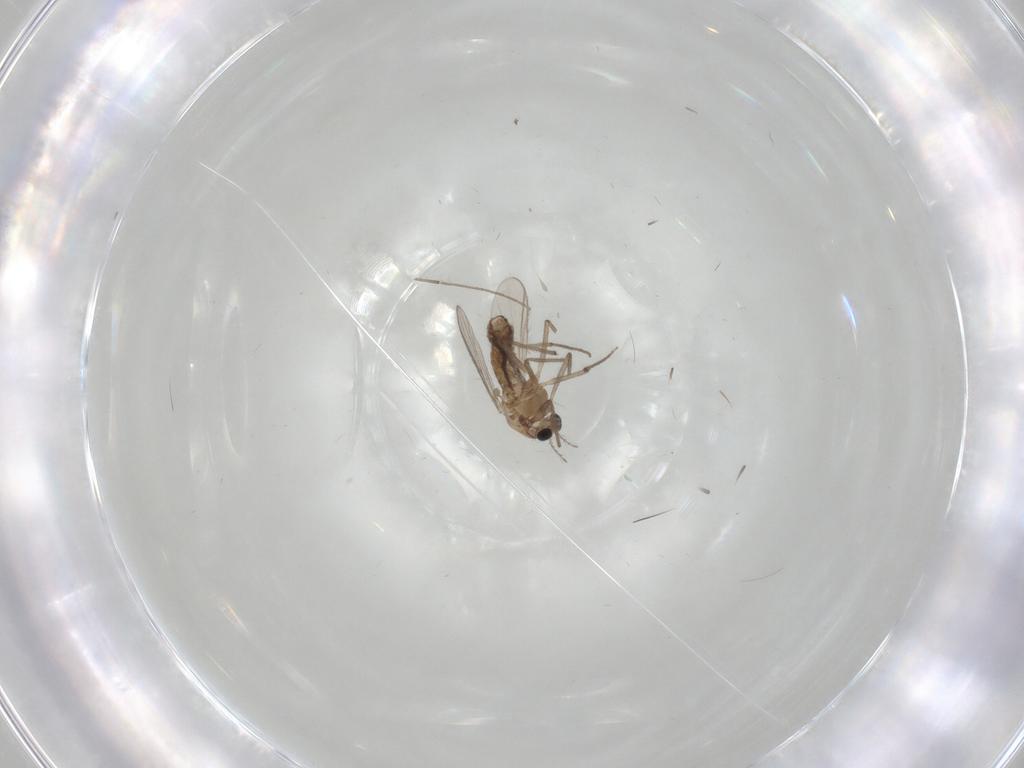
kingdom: Animalia
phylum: Arthropoda
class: Insecta
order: Diptera
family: Chironomidae
